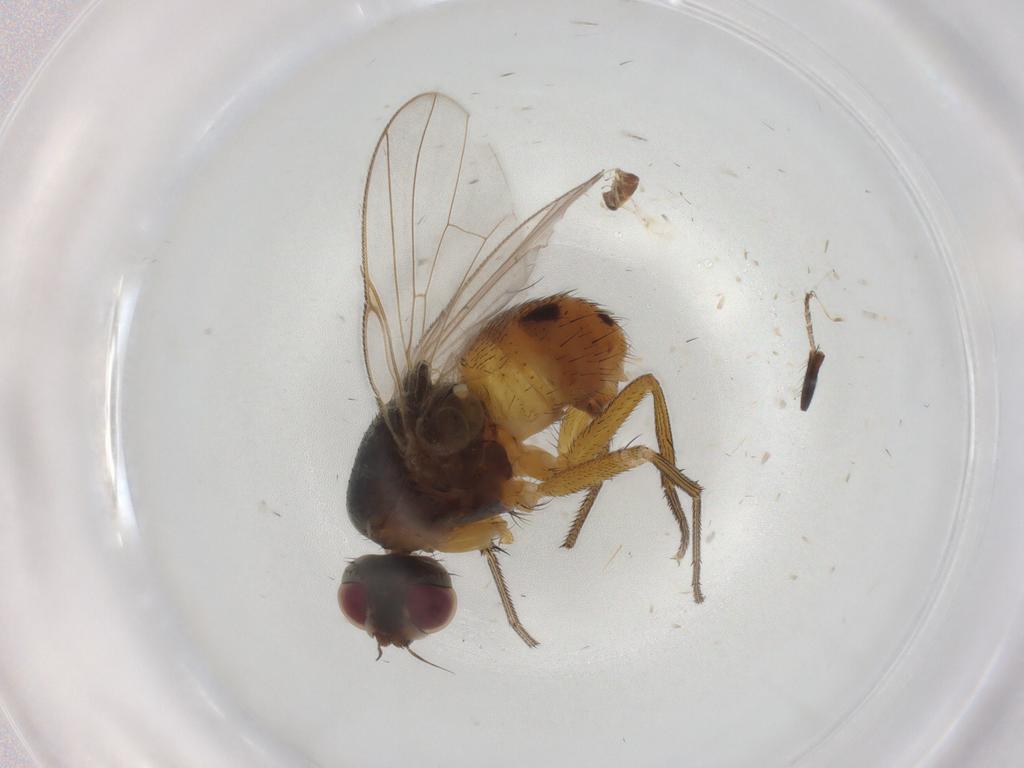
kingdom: Animalia
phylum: Arthropoda
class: Insecta
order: Diptera
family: Muscidae
